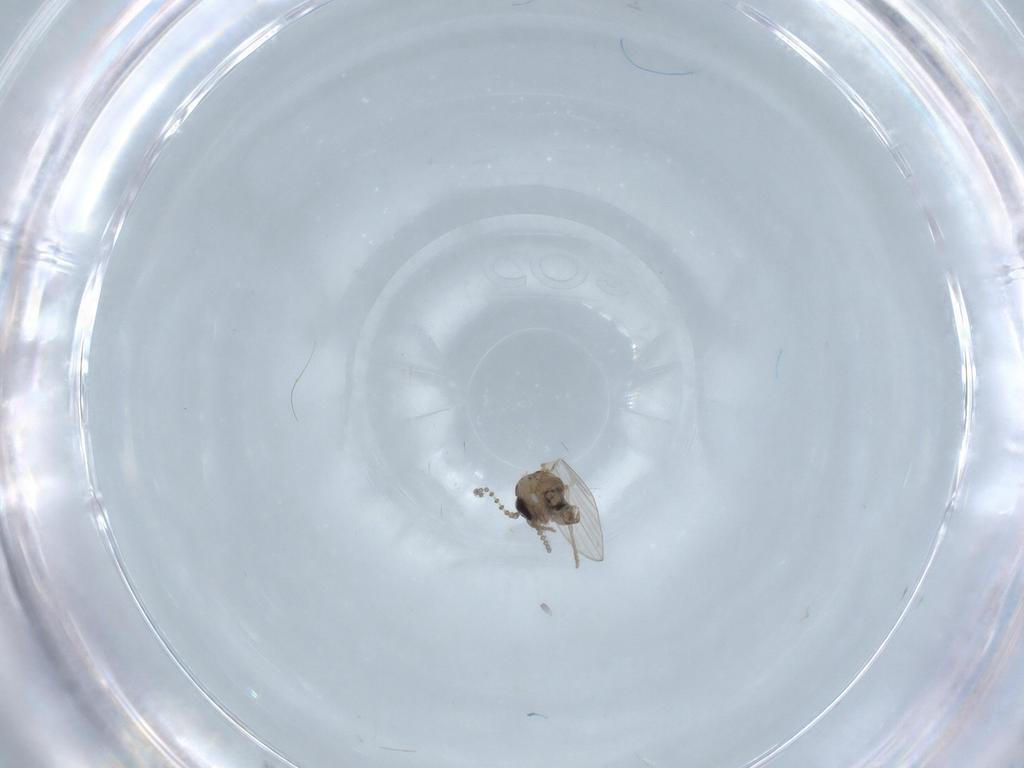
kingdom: Animalia
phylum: Arthropoda
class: Insecta
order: Diptera
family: Psychodidae
